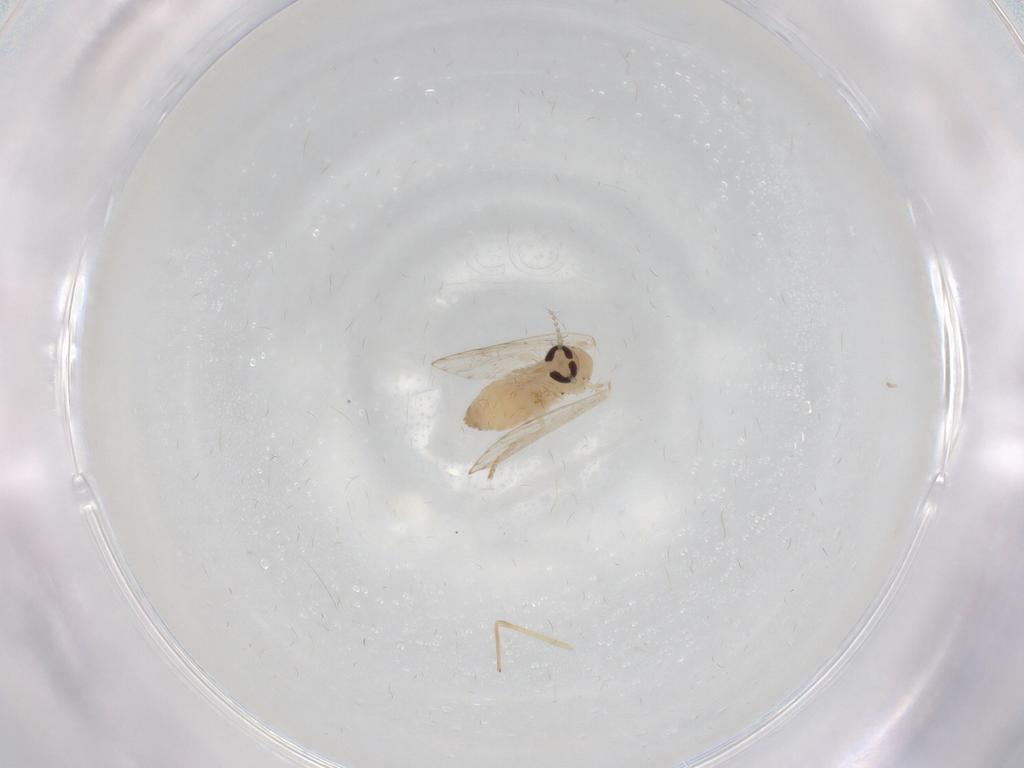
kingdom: Animalia
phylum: Arthropoda
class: Insecta
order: Diptera
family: Psychodidae
